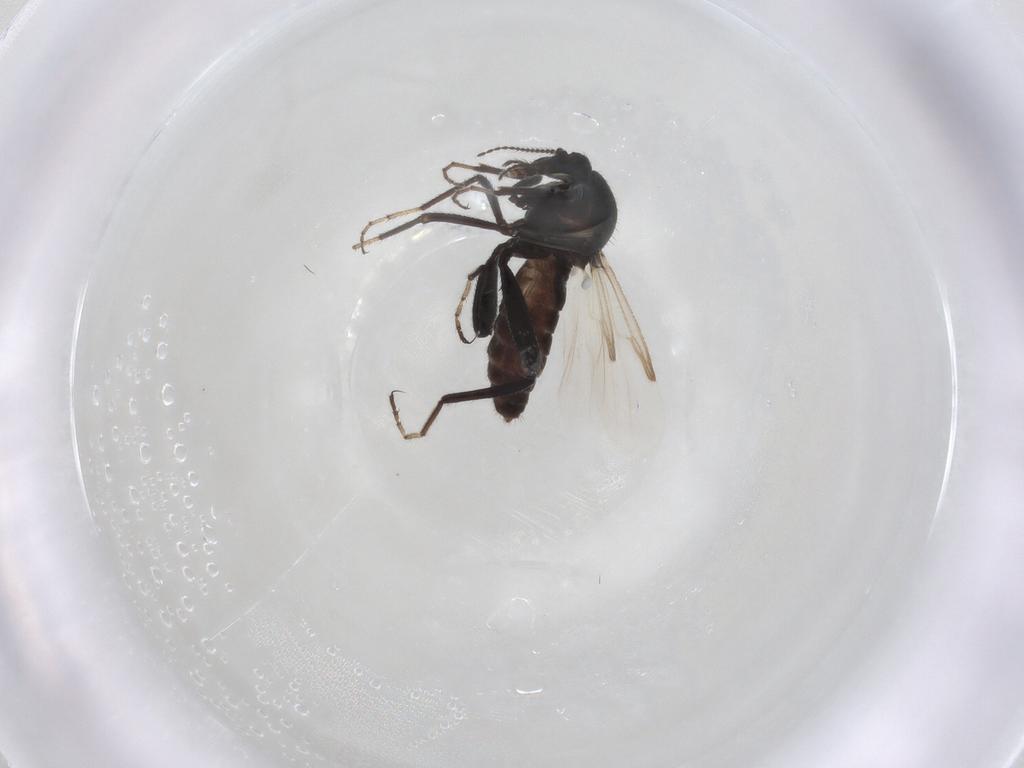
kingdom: Animalia
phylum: Arthropoda
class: Insecta
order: Diptera
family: Ceratopogonidae
